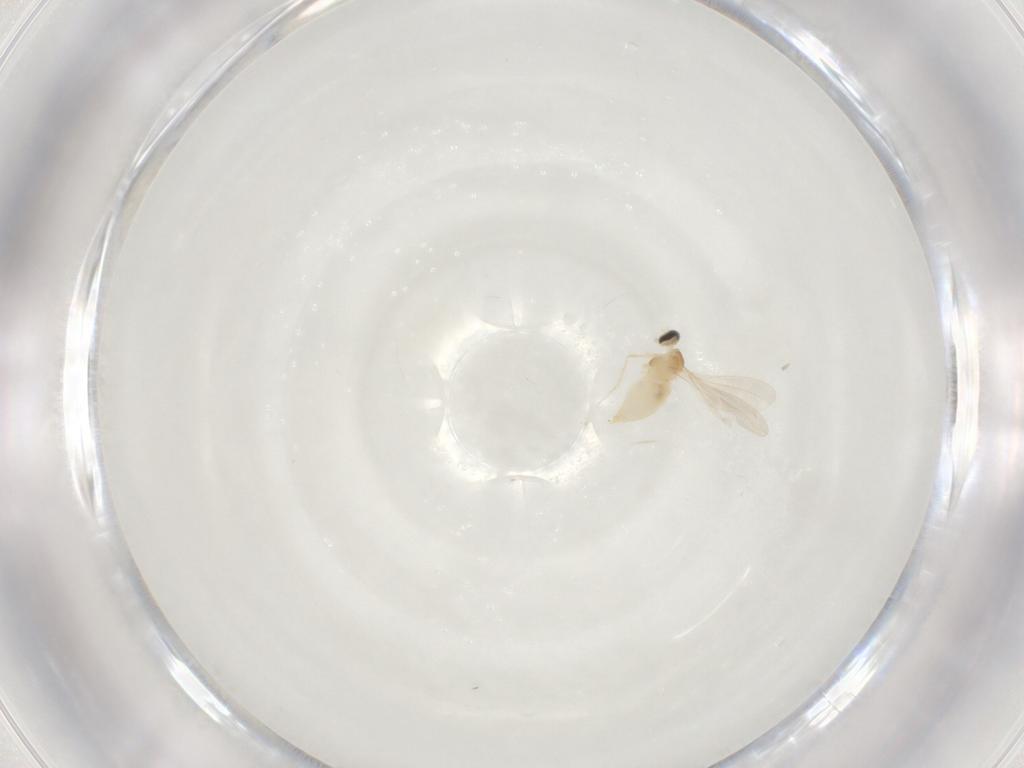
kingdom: Animalia
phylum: Arthropoda
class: Insecta
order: Diptera
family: Cecidomyiidae
